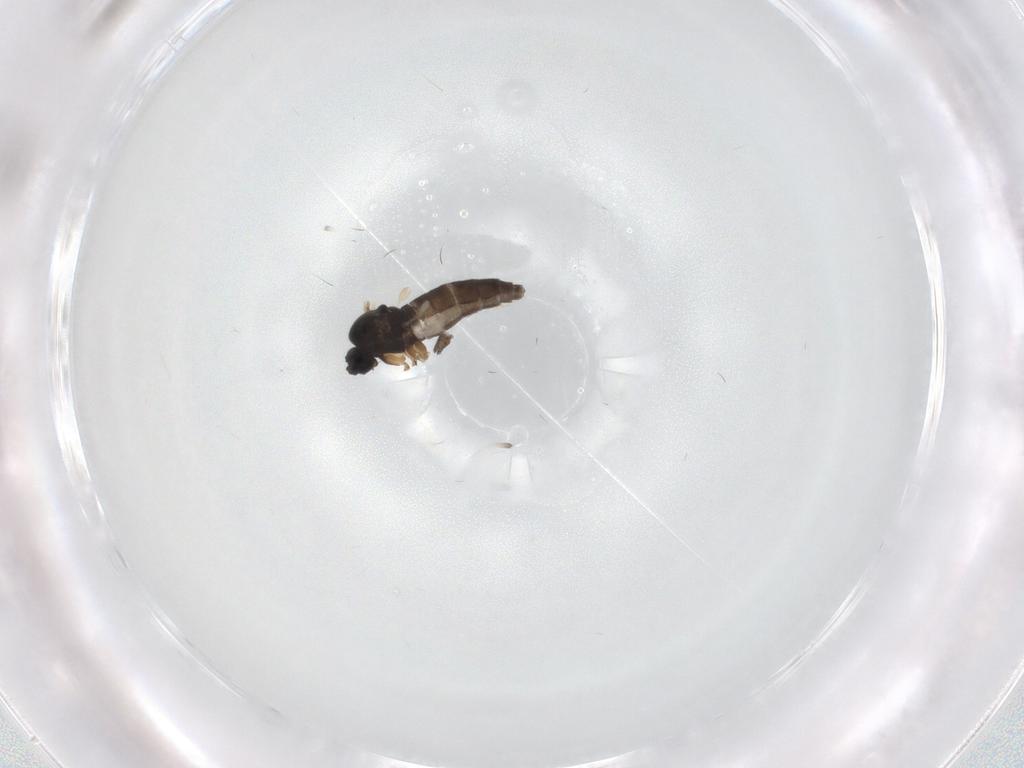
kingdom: Animalia
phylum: Arthropoda
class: Insecta
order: Diptera
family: Sciaridae
